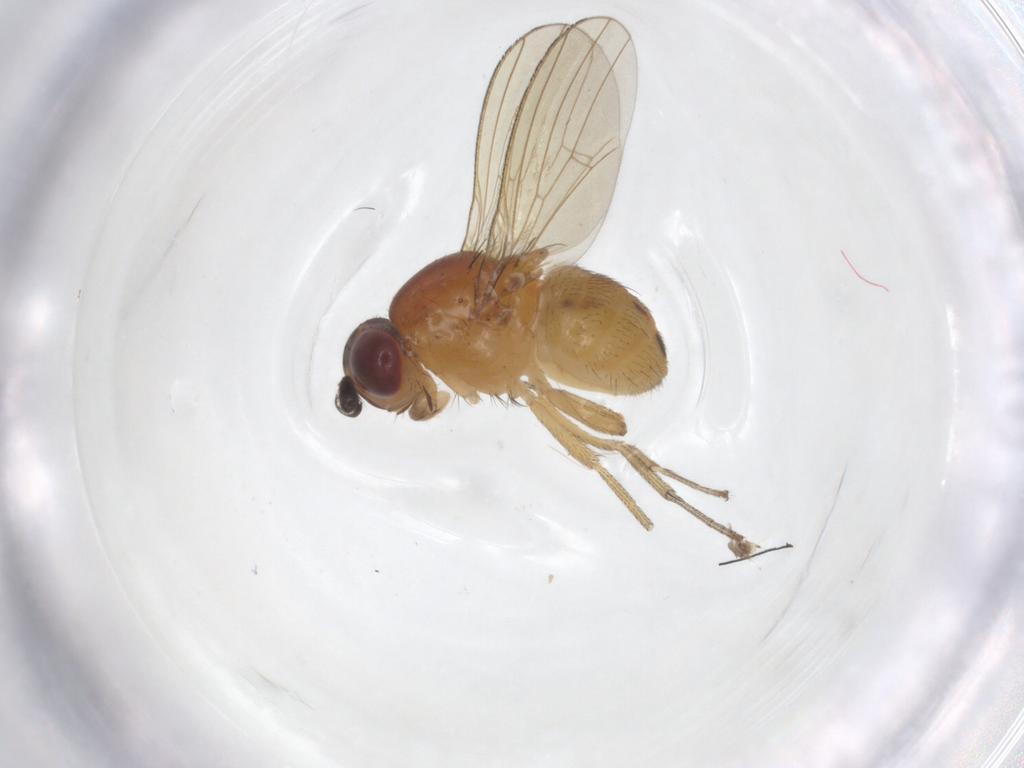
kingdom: Animalia
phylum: Arthropoda
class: Insecta
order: Diptera
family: Cecidomyiidae
